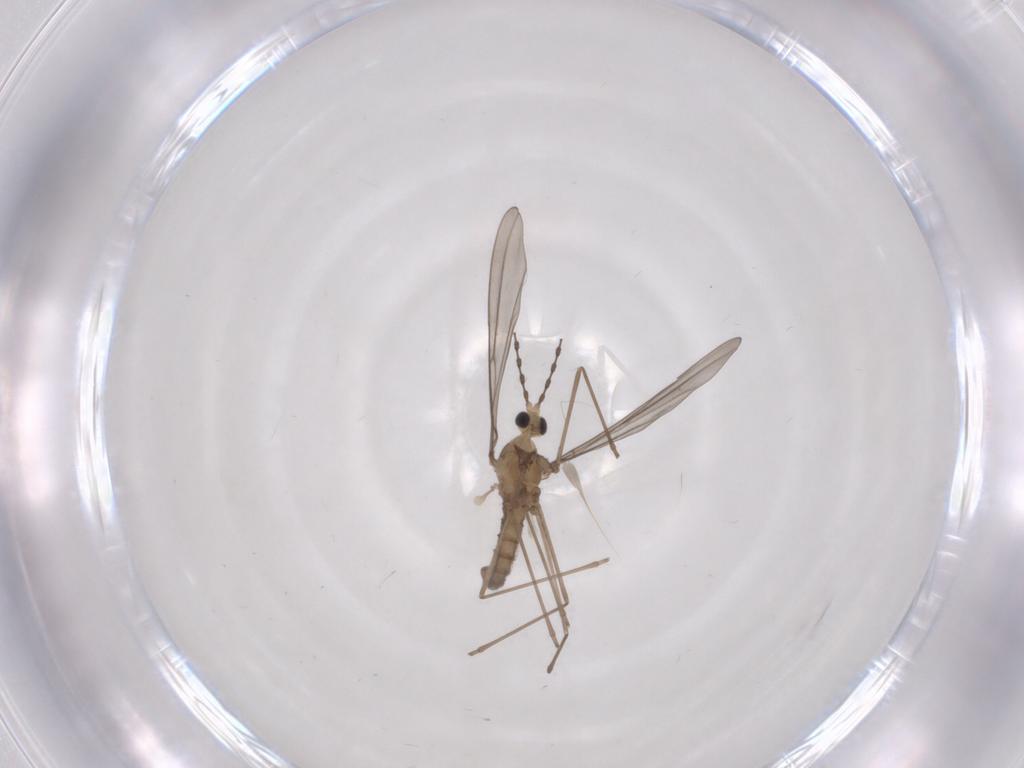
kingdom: Animalia
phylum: Arthropoda
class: Insecta
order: Diptera
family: Cecidomyiidae
